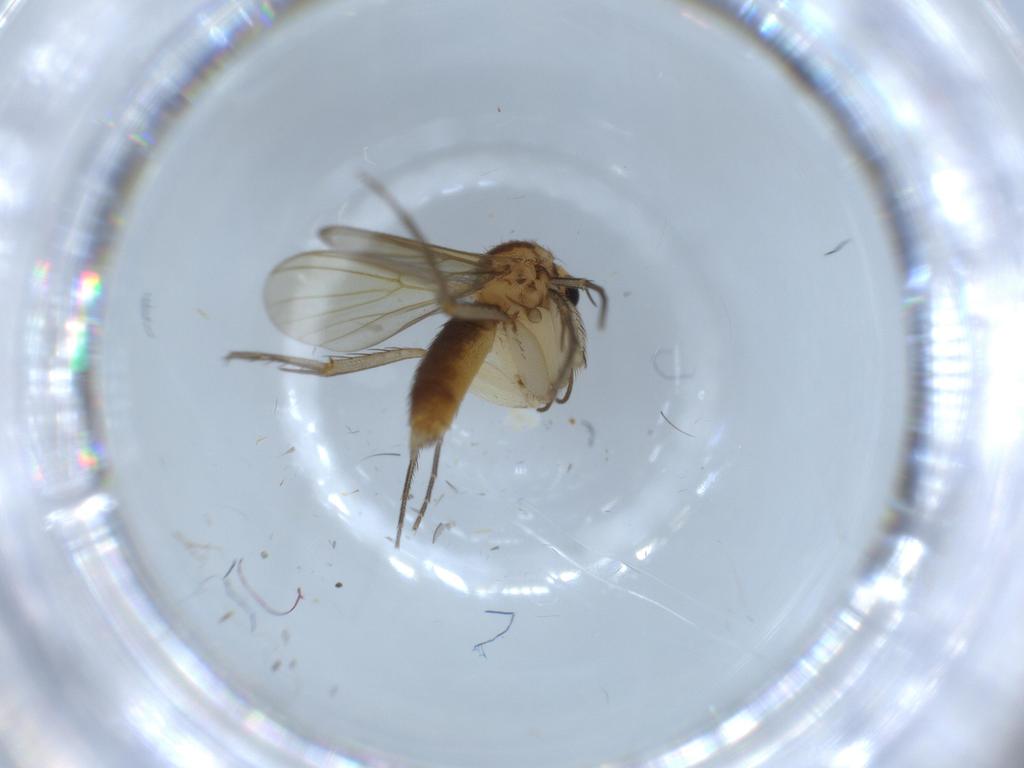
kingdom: Animalia
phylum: Arthropoda
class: Insecta
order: Diptera
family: Mycetophilidae
